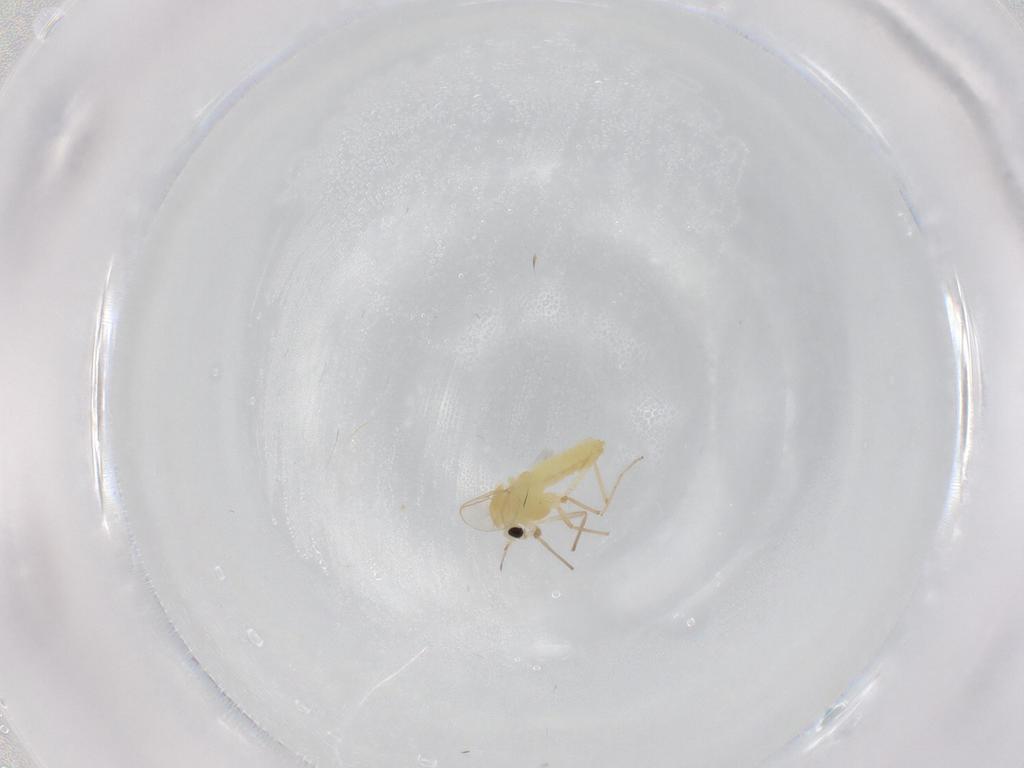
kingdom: Animalia
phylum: Arthropoda
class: Insecta
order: Diptera
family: Chironomidae
